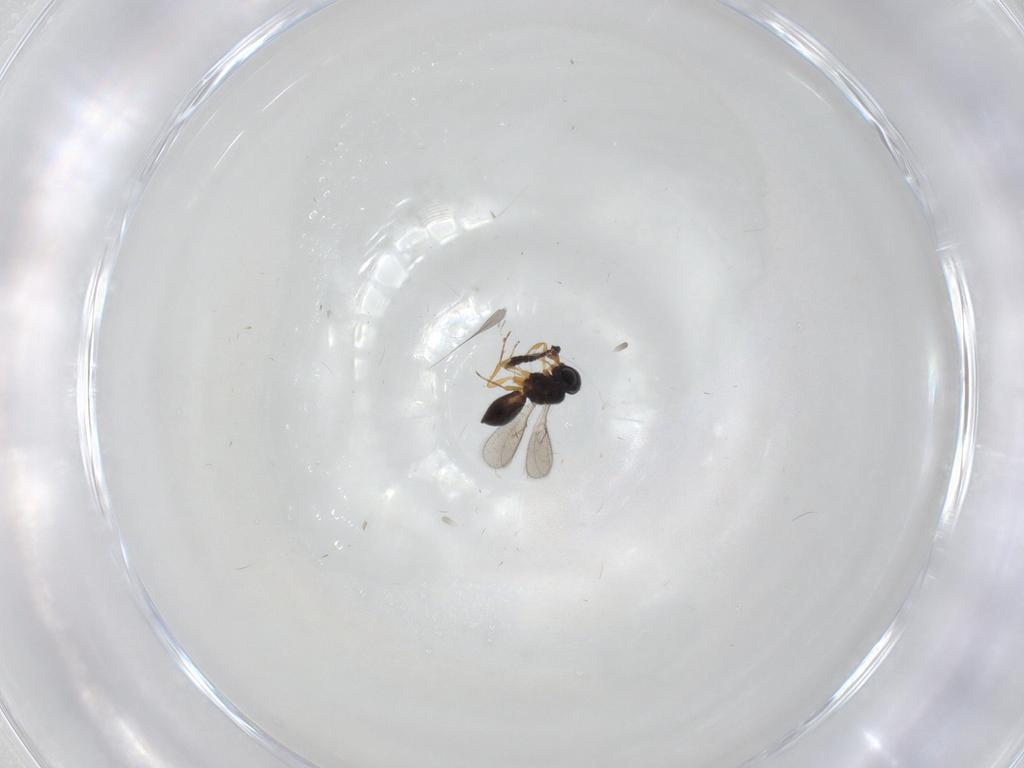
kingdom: Animalia
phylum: Arthropoda
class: Insecta
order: Hymenoptera
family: Scelionidae
